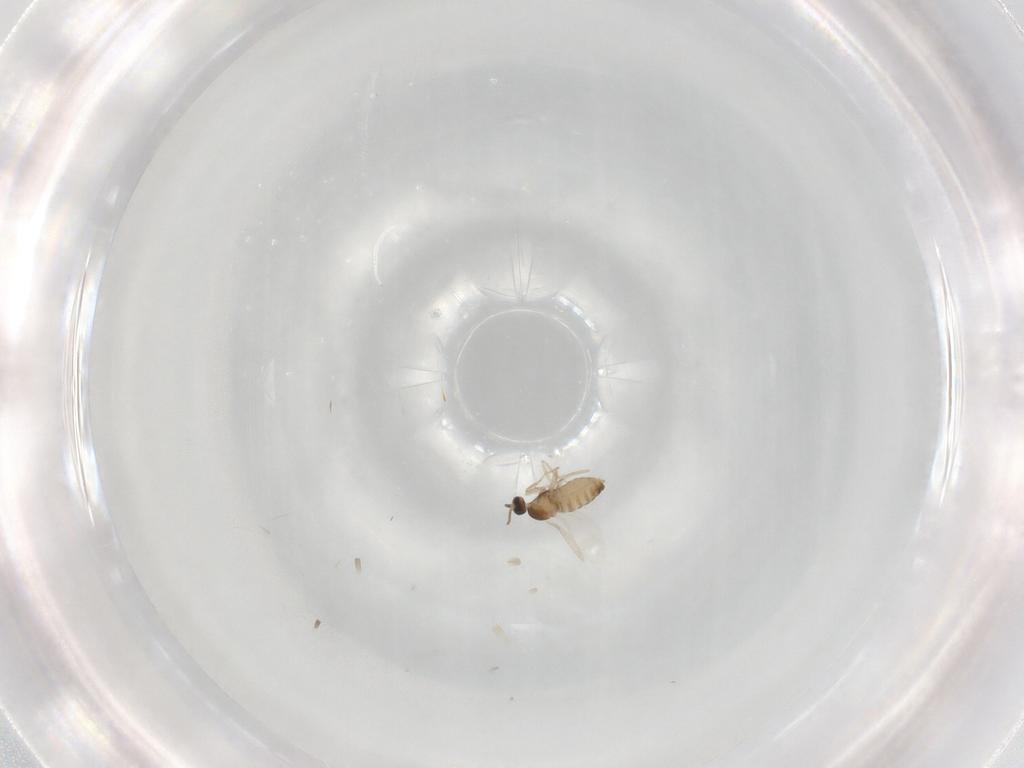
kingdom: Animalia
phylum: Arthropoda
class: Insecta
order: Diptera
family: Cecidomyiidae
